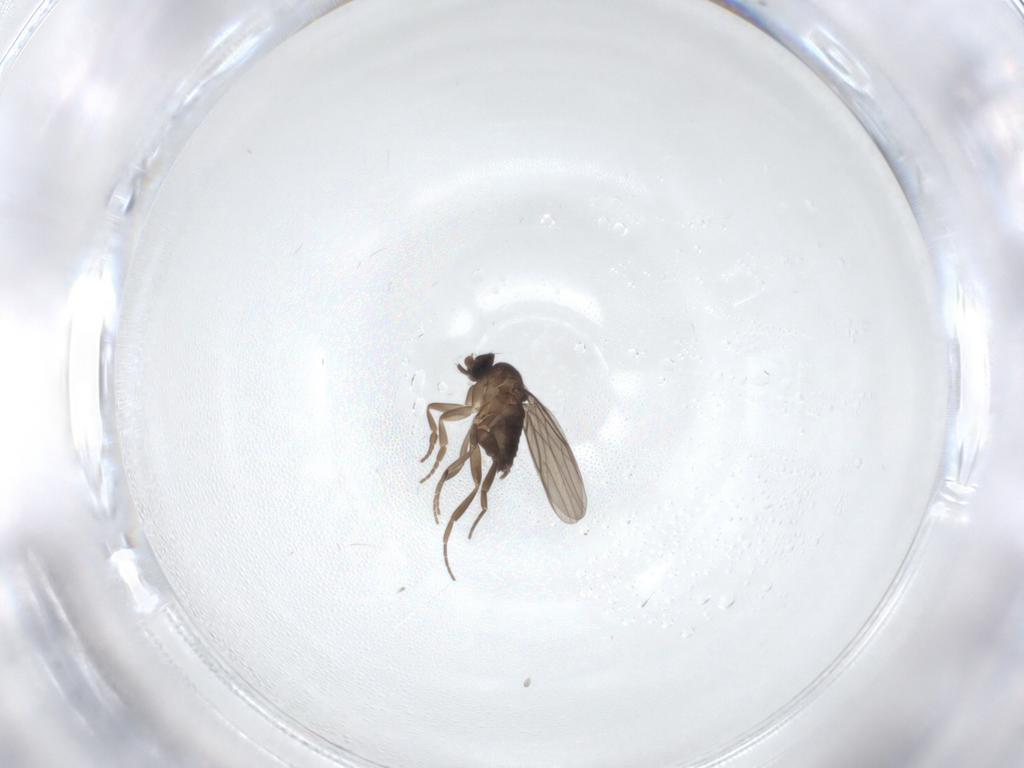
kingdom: Animalia
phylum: Arthropoda
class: Insecta
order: Diptera
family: Phoridae
